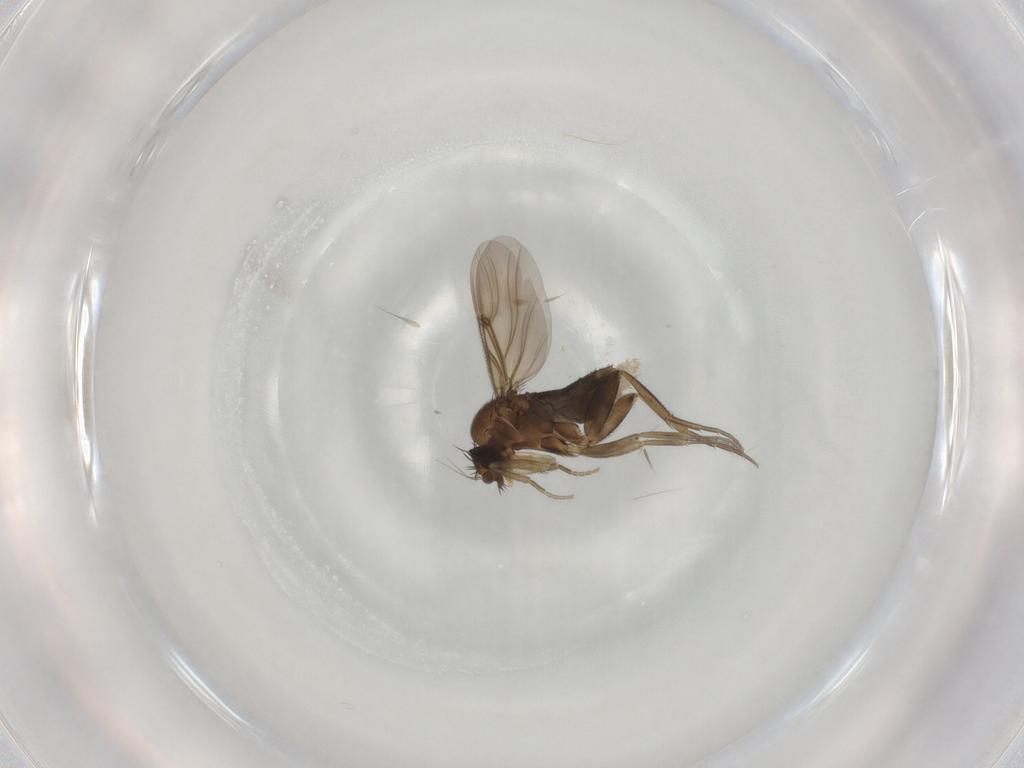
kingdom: Animalia
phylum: Arthropoda
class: Insecta
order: Diptera
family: Phoridae
